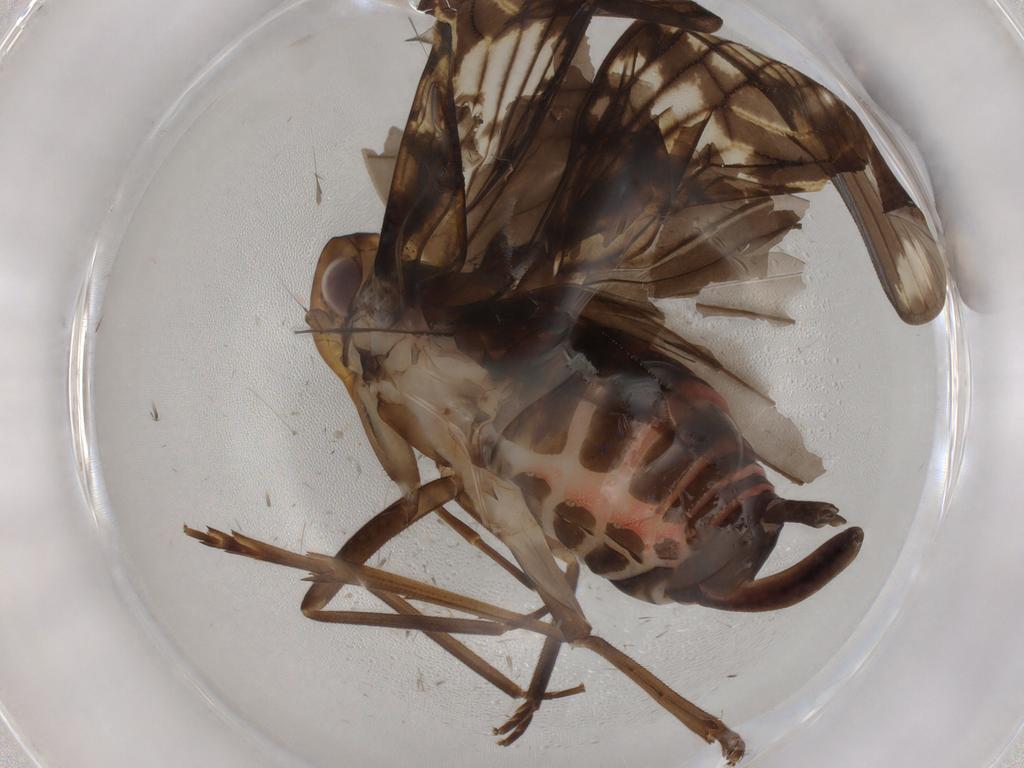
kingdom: Animalia
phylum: Arthropoda
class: Insecta
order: Hemiptera
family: Cixiidae
